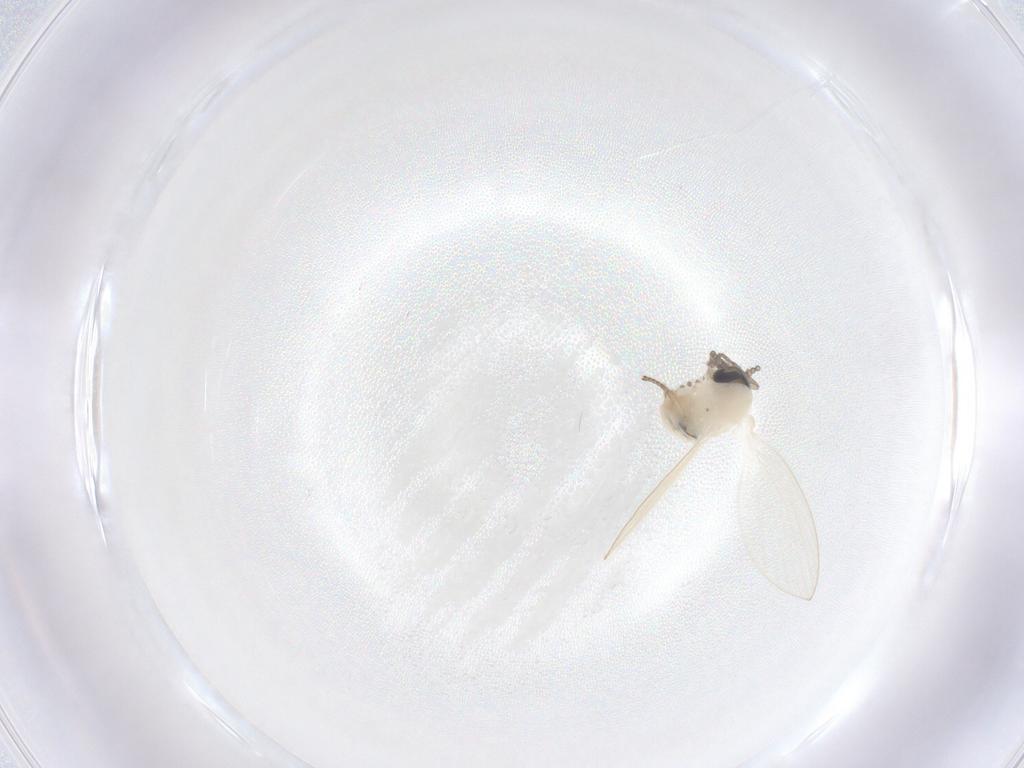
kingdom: Animalia
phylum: Arthropoda
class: Insecta
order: Diptera
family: Psychodidae
